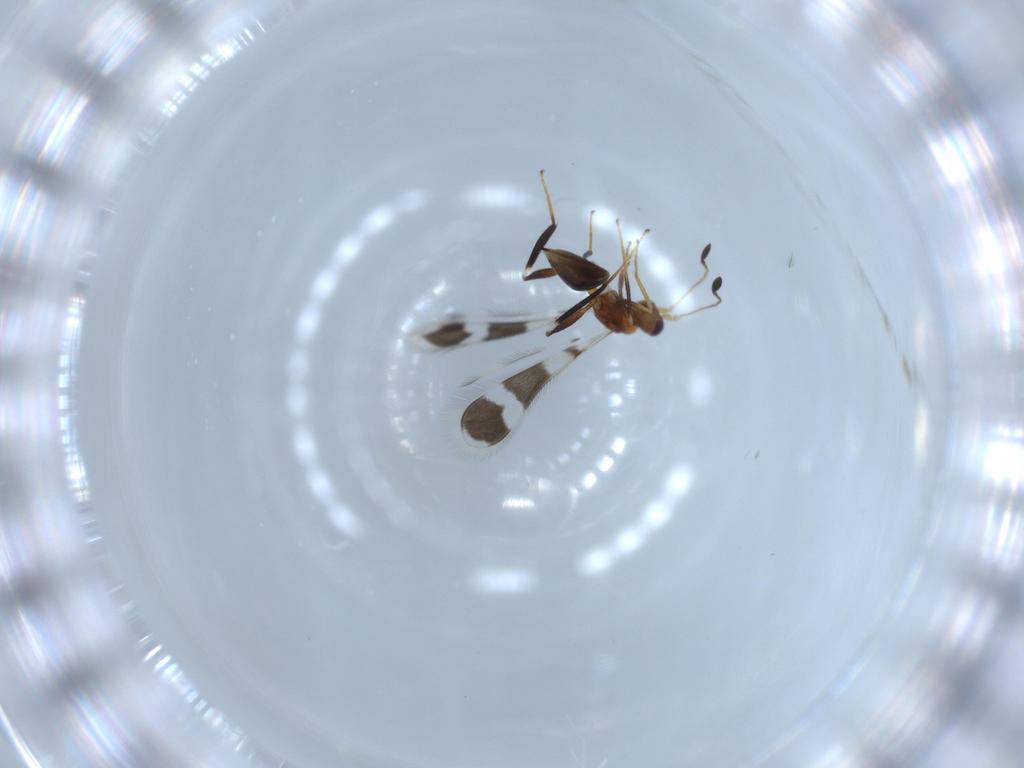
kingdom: Animalia
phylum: Arthropoda
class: Insecta
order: Hymenoptera
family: Mymaridae
